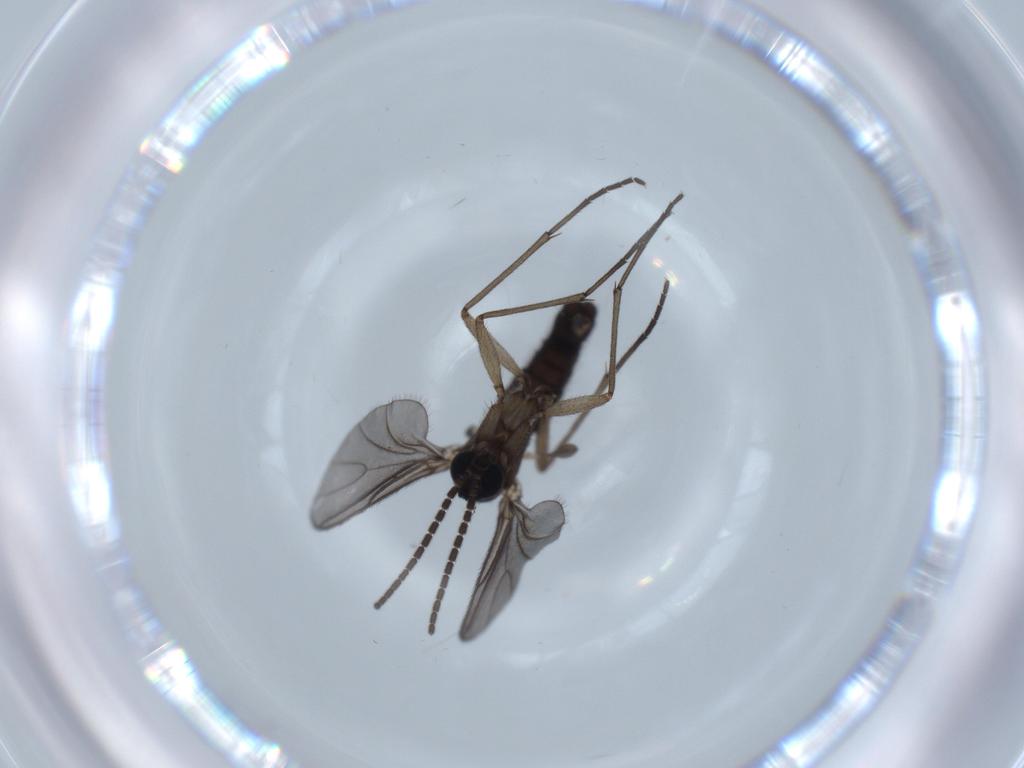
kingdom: Animalia
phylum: Arthropoda
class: Insecta
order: Diptera
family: Sciaridae
